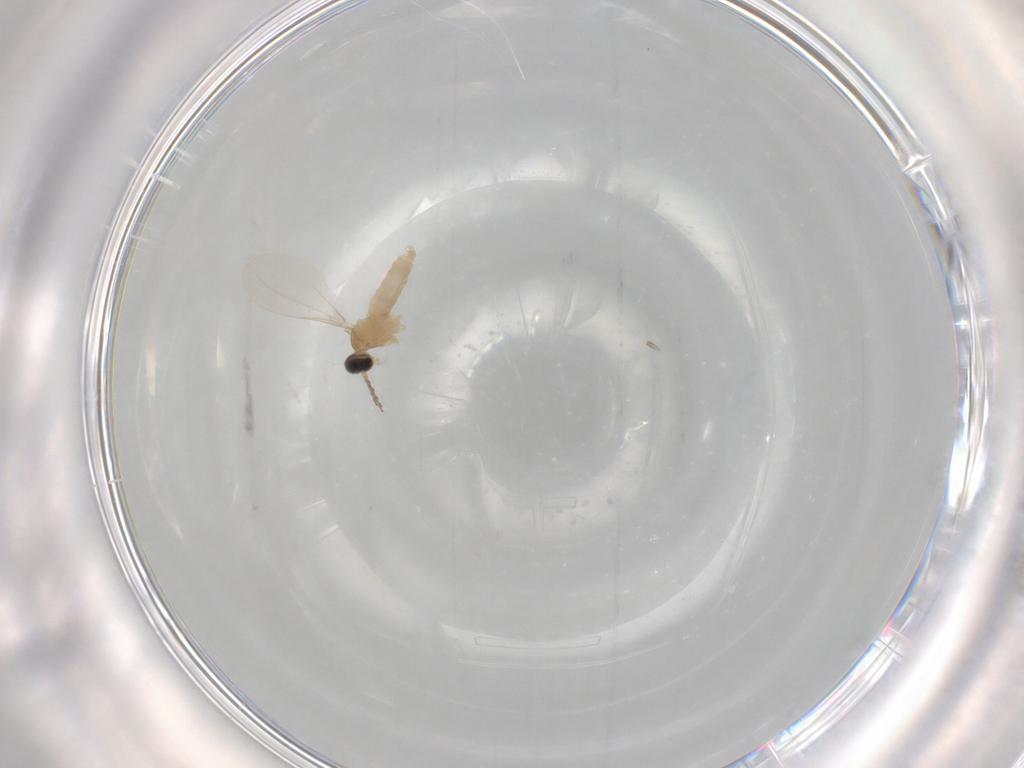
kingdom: Animalia
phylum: Arthropoda
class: Insecta
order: Diptera
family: Cecidomyiidae
